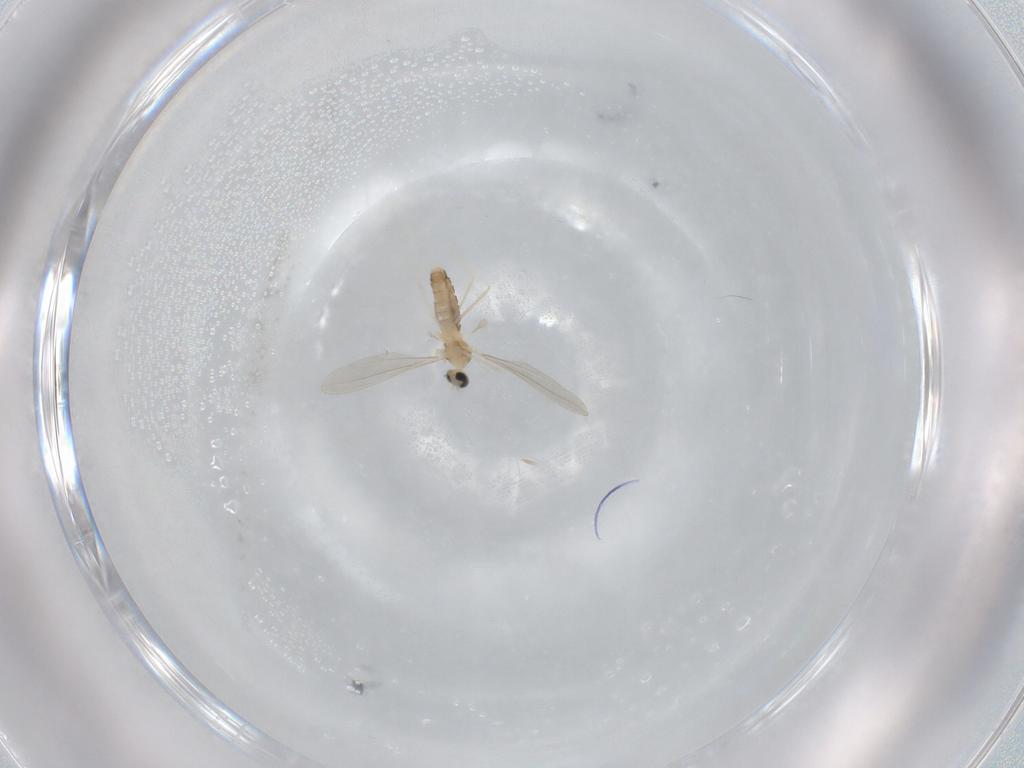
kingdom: Animalia
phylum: Arthropoda
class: Insecta
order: Diptera
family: Cecidomyiidae
